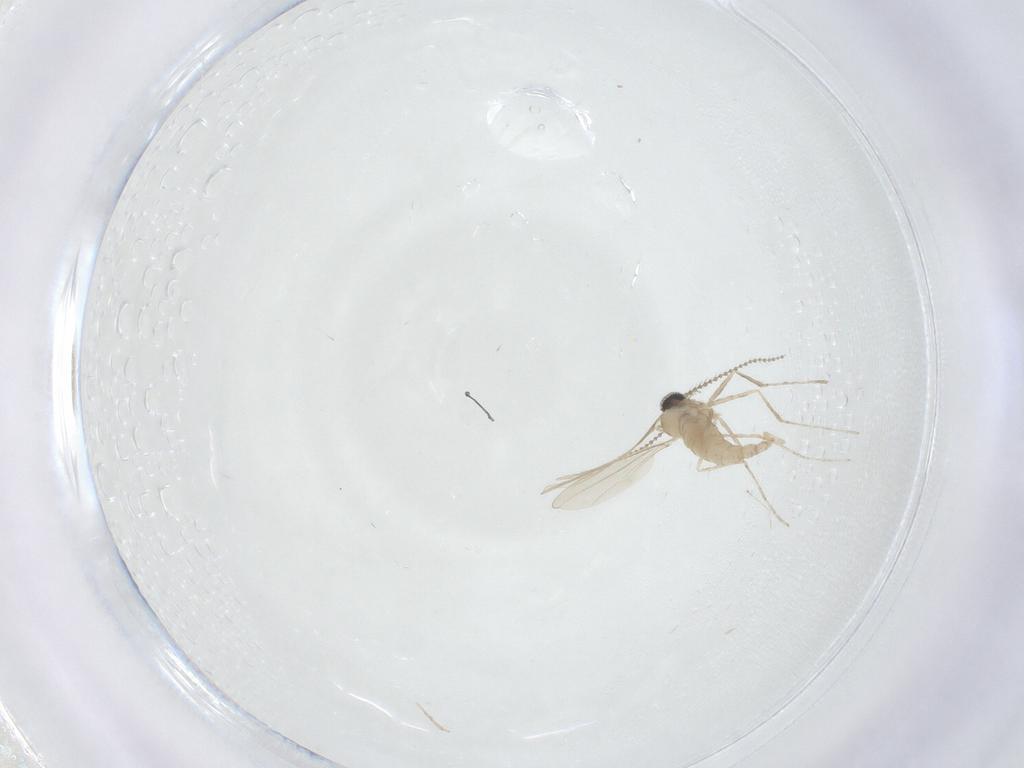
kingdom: Animalia
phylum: Arthropoda
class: Insecta
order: Diptera
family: Cecidomyiidae
